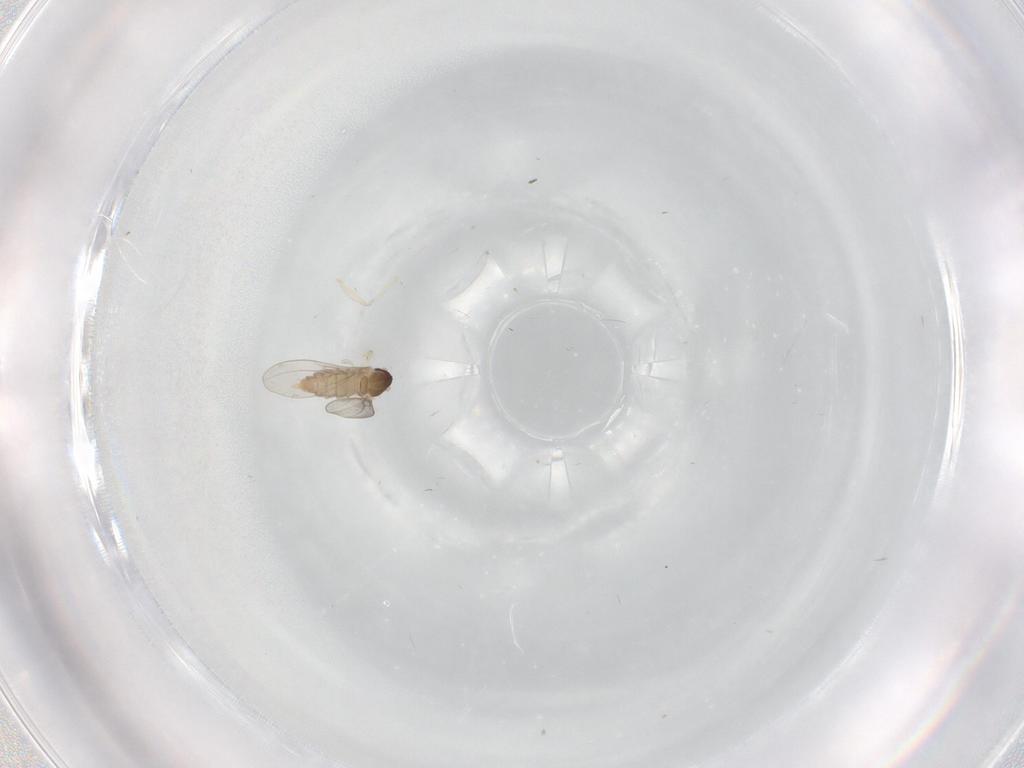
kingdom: Animalia
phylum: Arthropoda
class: Insecta
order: Diptera
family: Cecidomyiidae
